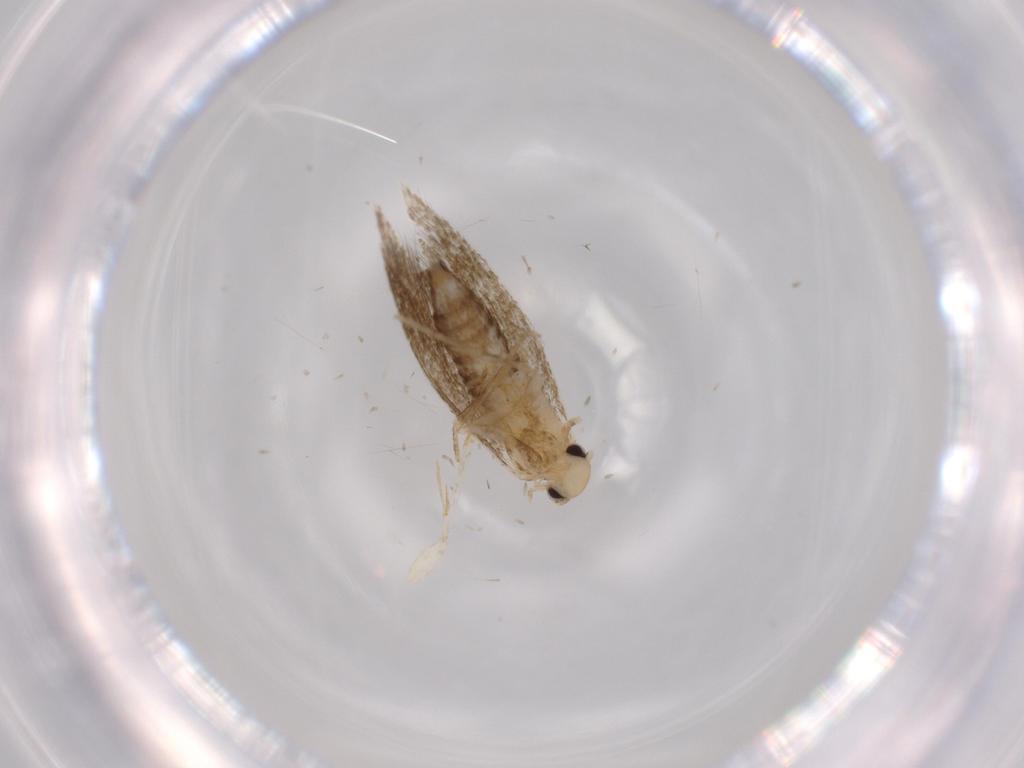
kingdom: Animalia
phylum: Arthropoda
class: Insecta
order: Lepidoptera
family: Tineidae
